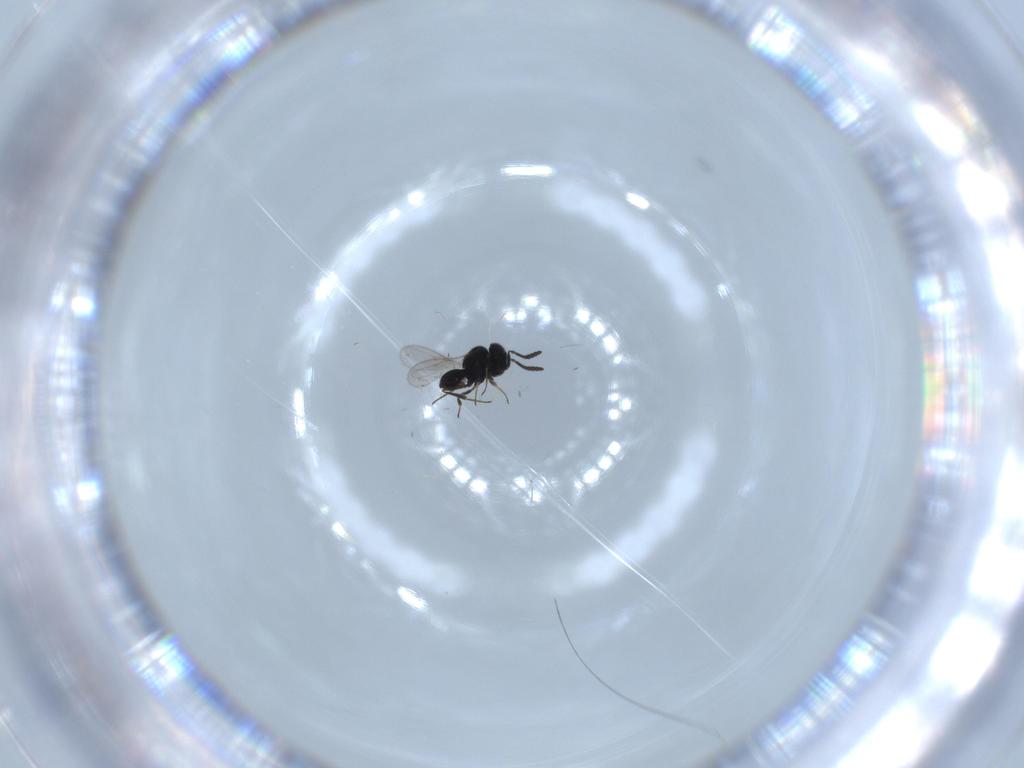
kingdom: Animalia
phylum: Arthropoda
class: Insecta
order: Hymenoptera
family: Scelionidae
